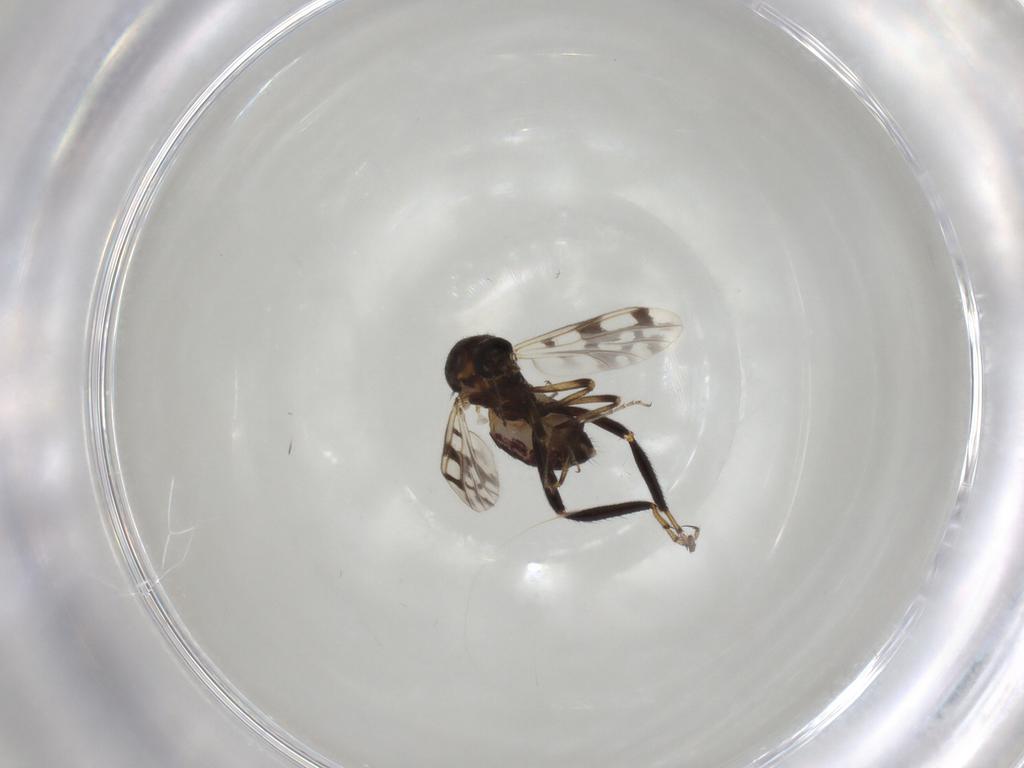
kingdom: Animalia
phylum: Arthropoda
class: Insecta
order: Diptera
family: Ceratopogonidae
